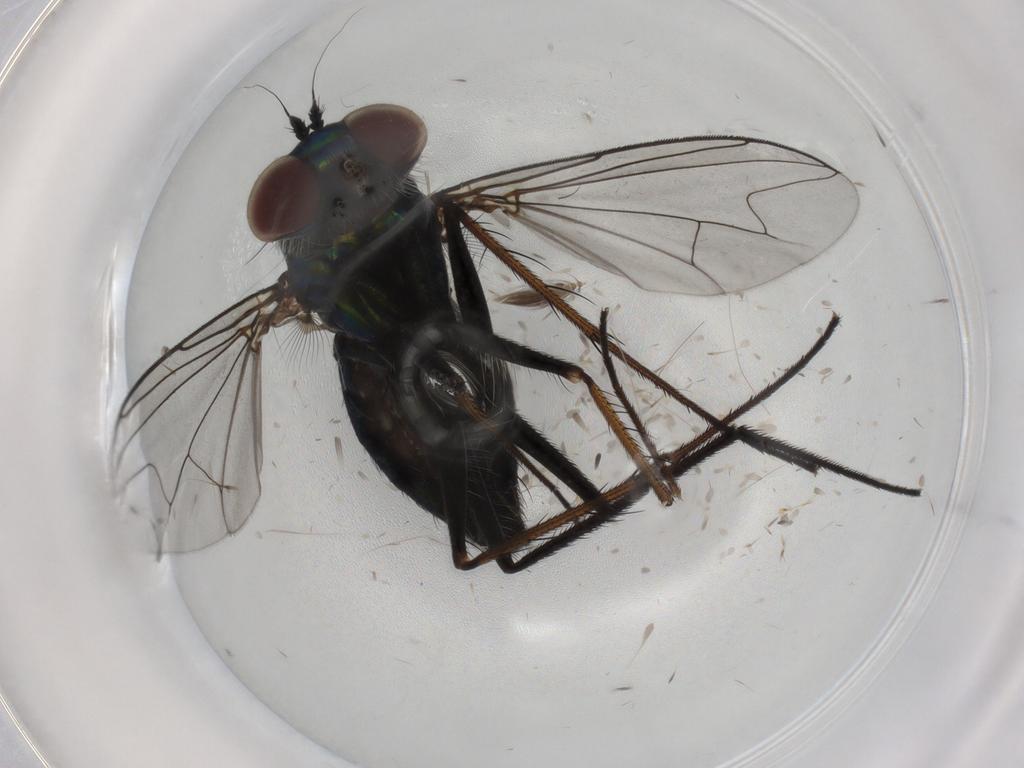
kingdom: Animalia
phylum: Arthropoda
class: Insecta
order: Diptera
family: Dolichopodidae
